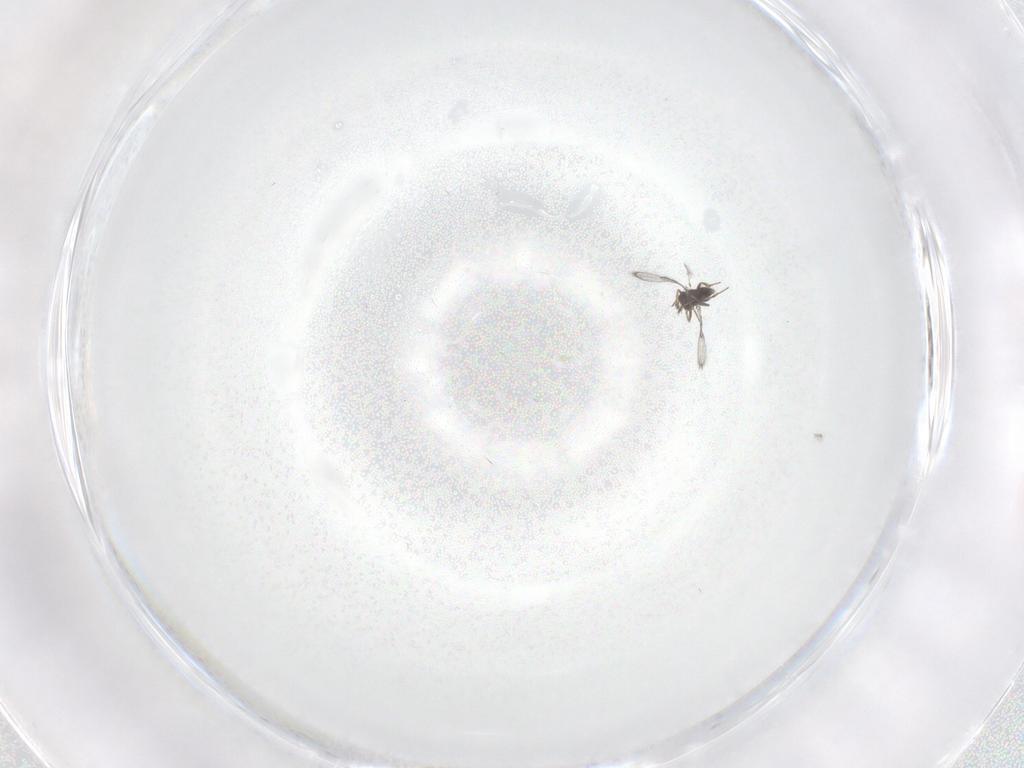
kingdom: Animalia
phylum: Arthropoda
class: Insecta
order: Hymenoptera
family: Trichogrammatidae
